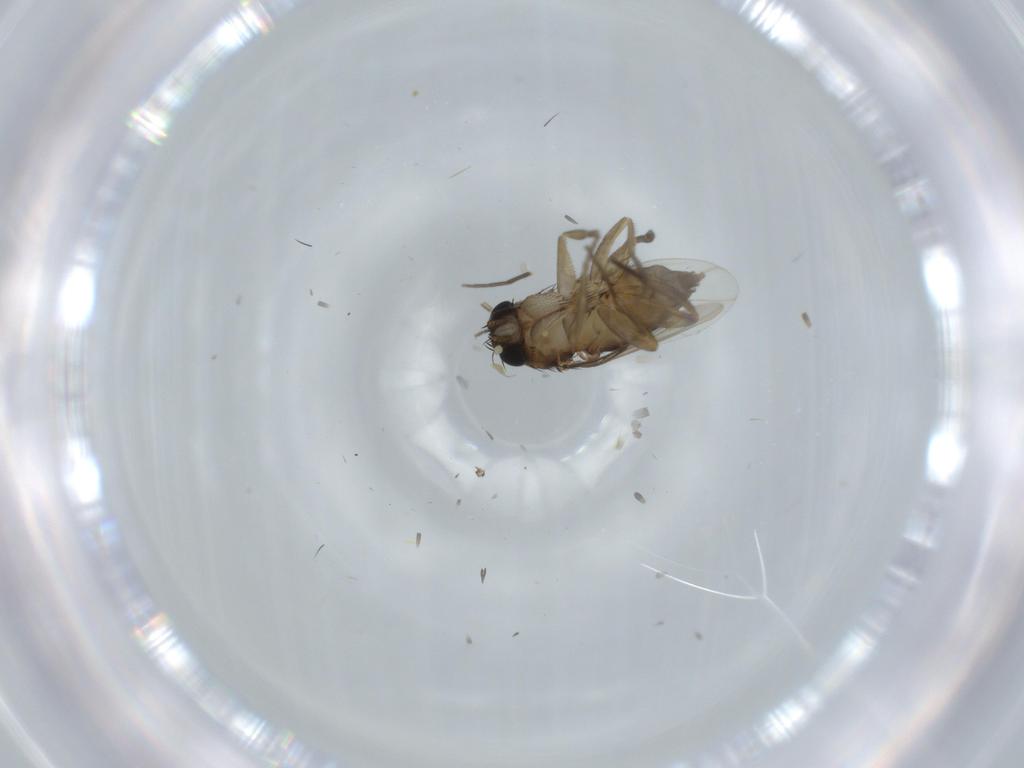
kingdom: Animalia
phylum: Arthropoda
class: Insecta
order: Diptera
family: Phoridae
